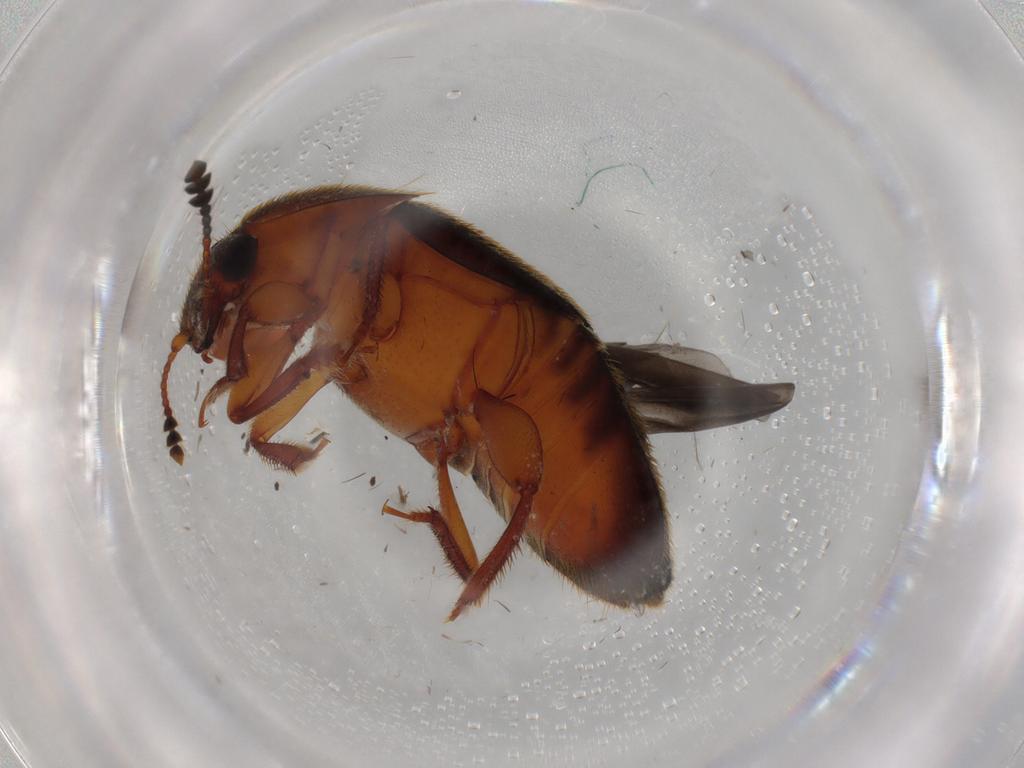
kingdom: Animalia
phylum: Arthropoda
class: Insecta
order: Coleoptera
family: Nitidulidae
